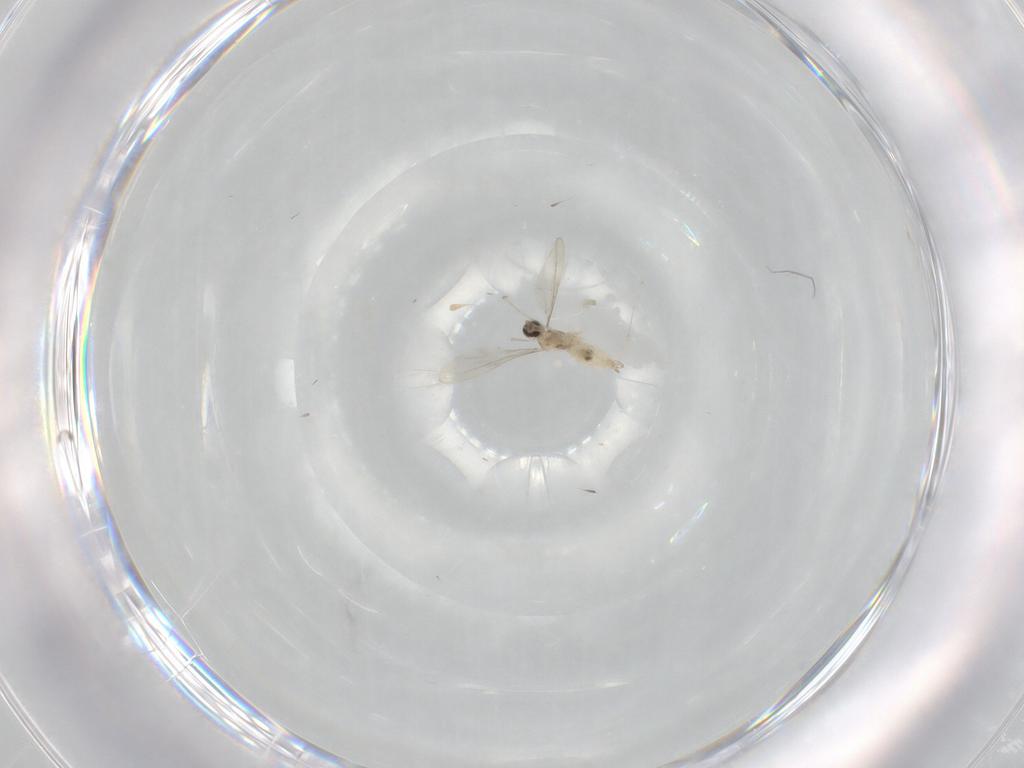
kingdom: Animalia
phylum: Arthropoda
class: Insecta
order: Diptera
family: Cecidomyiidae
